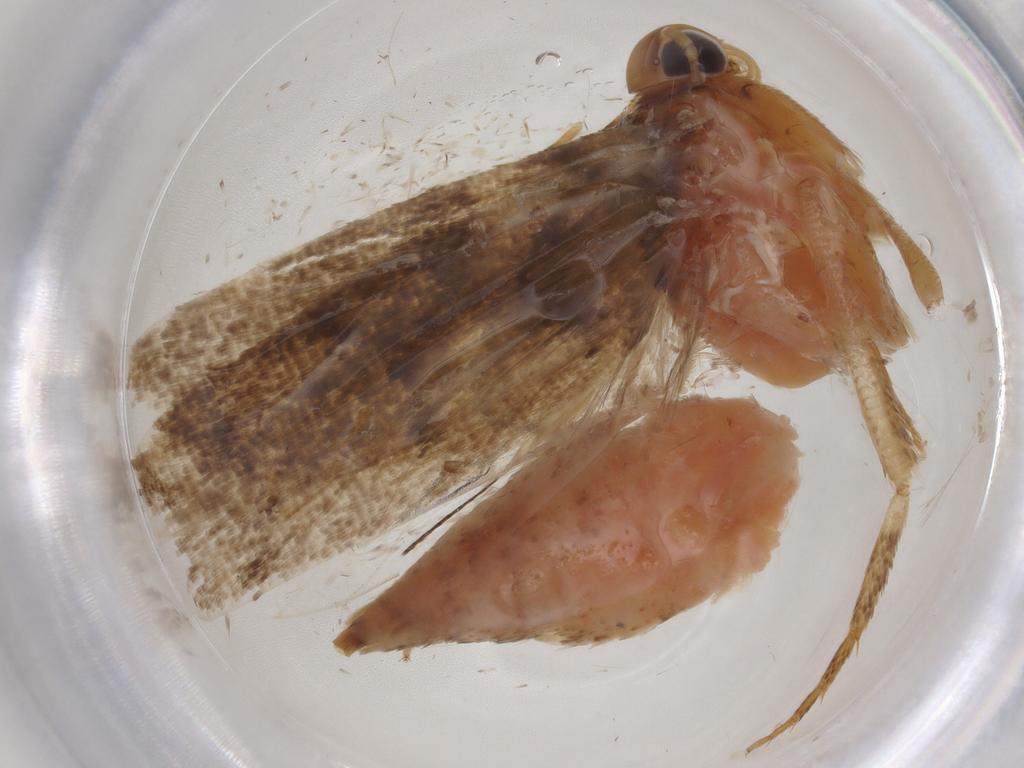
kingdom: Animalia
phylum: Arthropoda
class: Insecta
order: Lepidoptera
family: Gelechiidae
